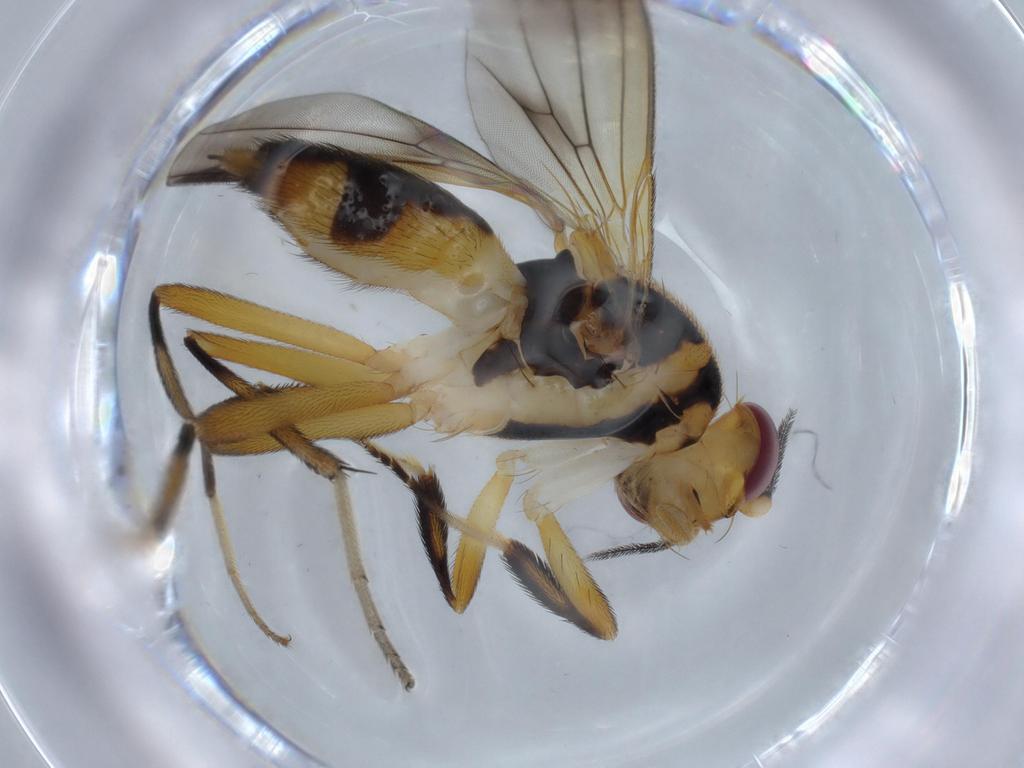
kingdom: Animalia
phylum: Arthropoda
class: Insecta
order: Diptera
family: Clusiidae
